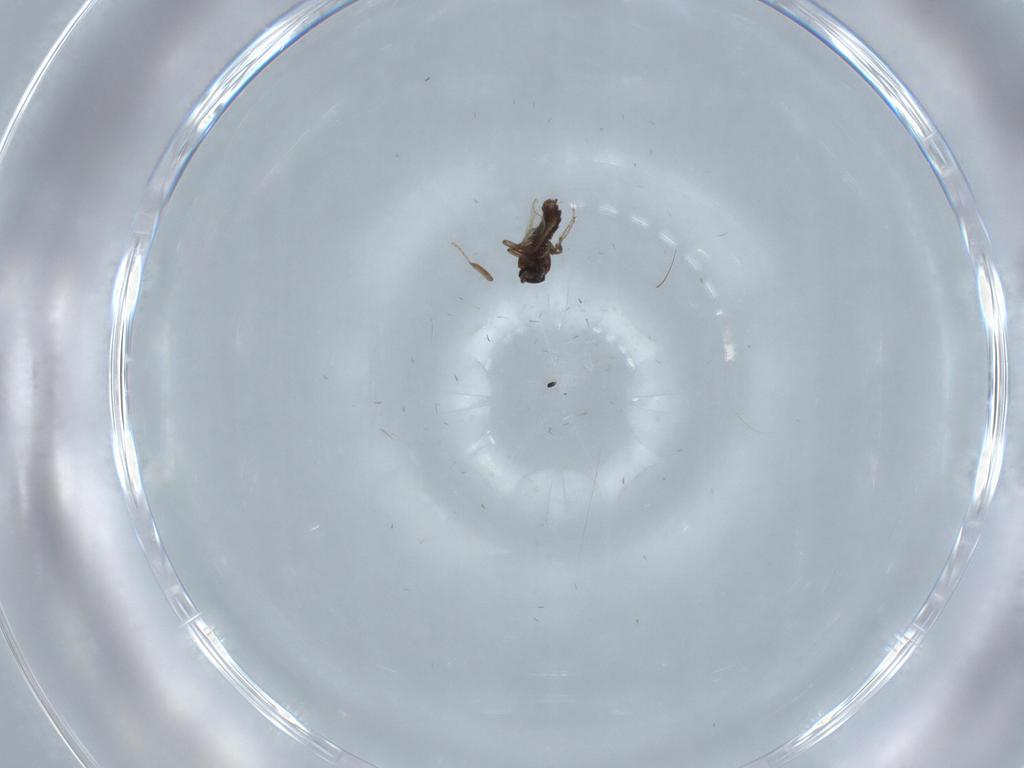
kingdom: Animalia
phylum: Arthropoda
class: Insecta
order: Diptera
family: Ceratopogonidae
